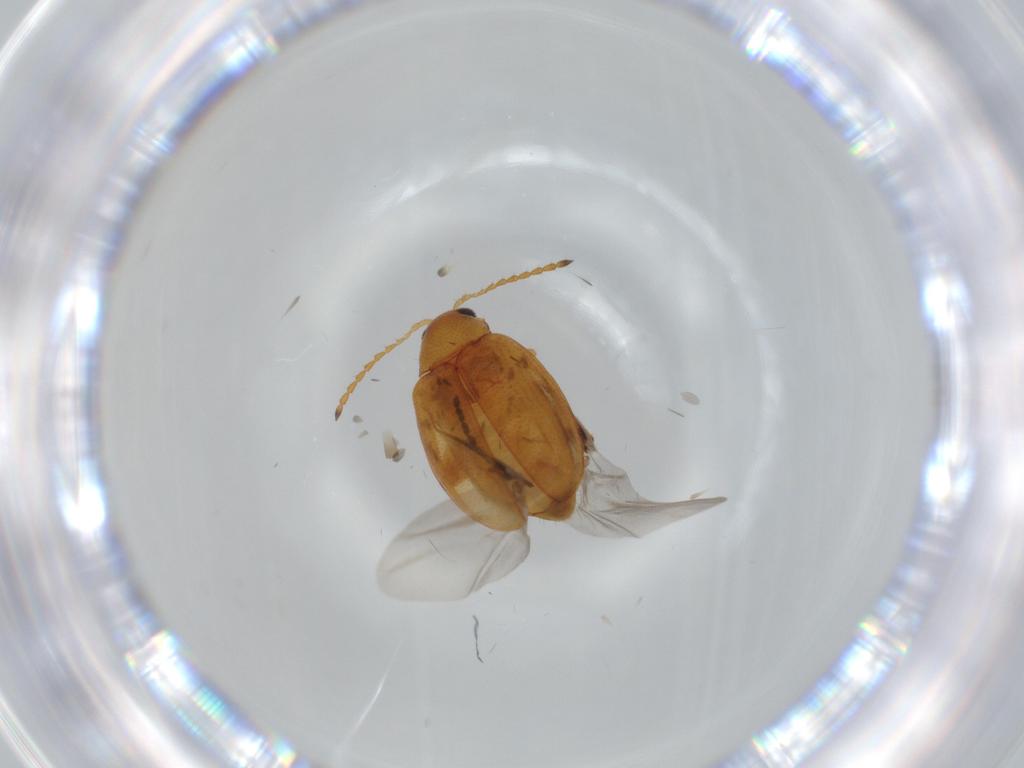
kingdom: Animalia
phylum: Arthropoda
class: Insecta
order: Coleoptera
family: Chrysomelidae
